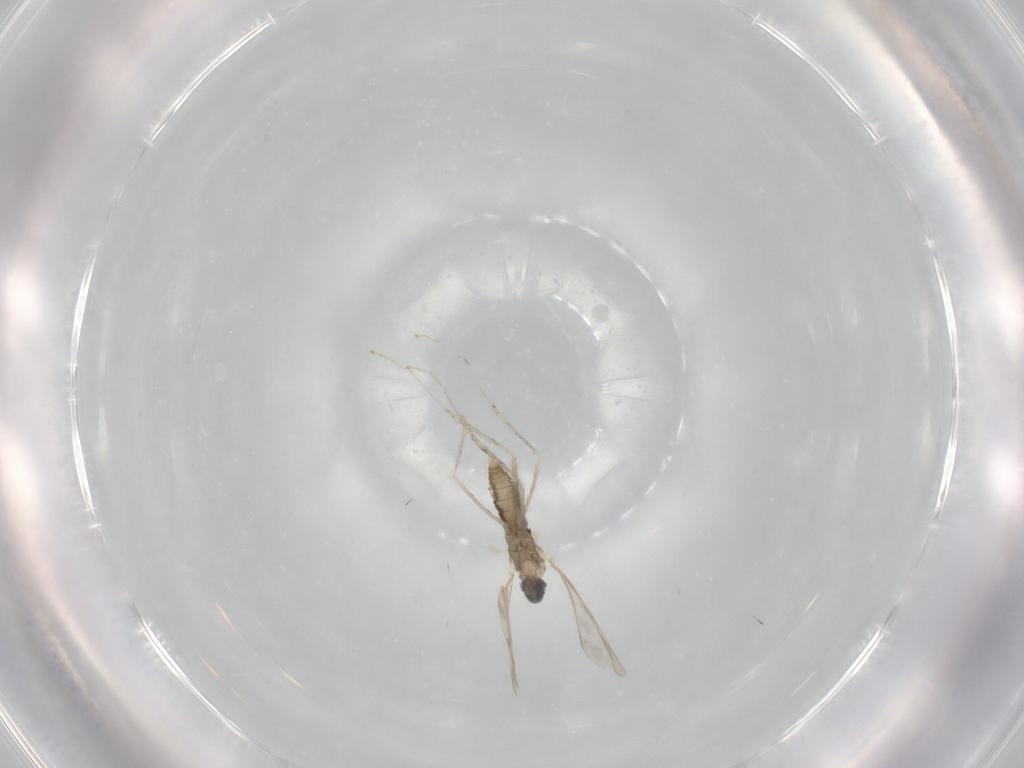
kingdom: Animalia
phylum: Arthropoda
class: Insecta
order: Diptera
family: Cecidomyiidae
